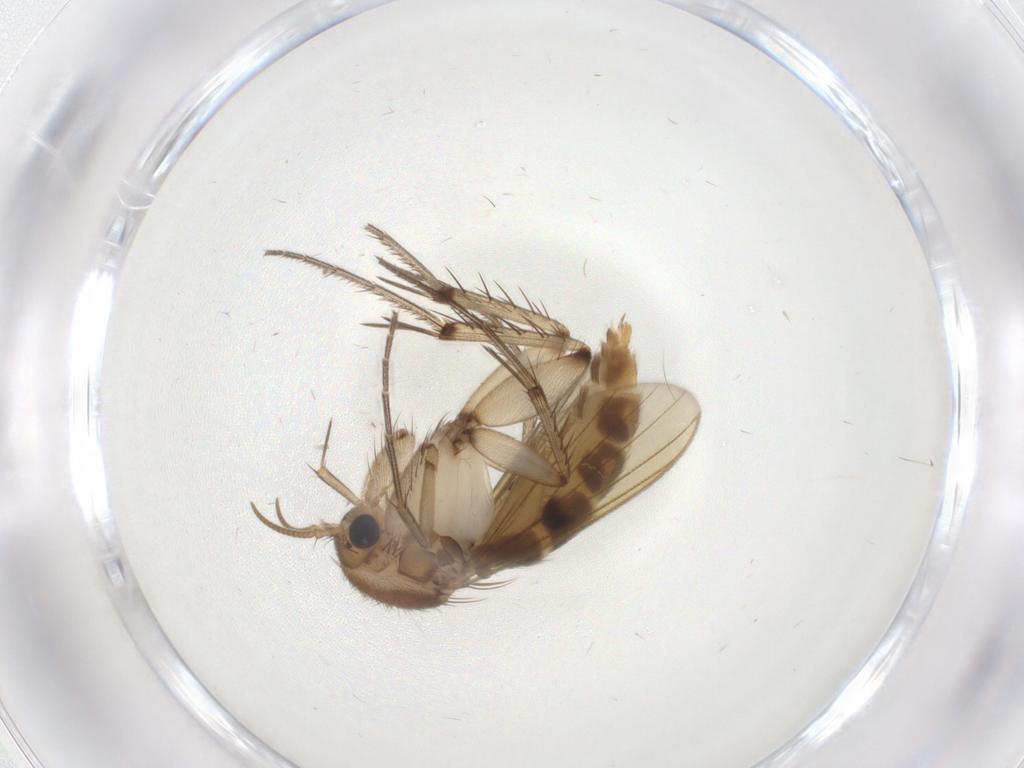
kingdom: Animalia
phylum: Arthropoda
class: Insecta
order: Diptera
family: Mycetophilidae
